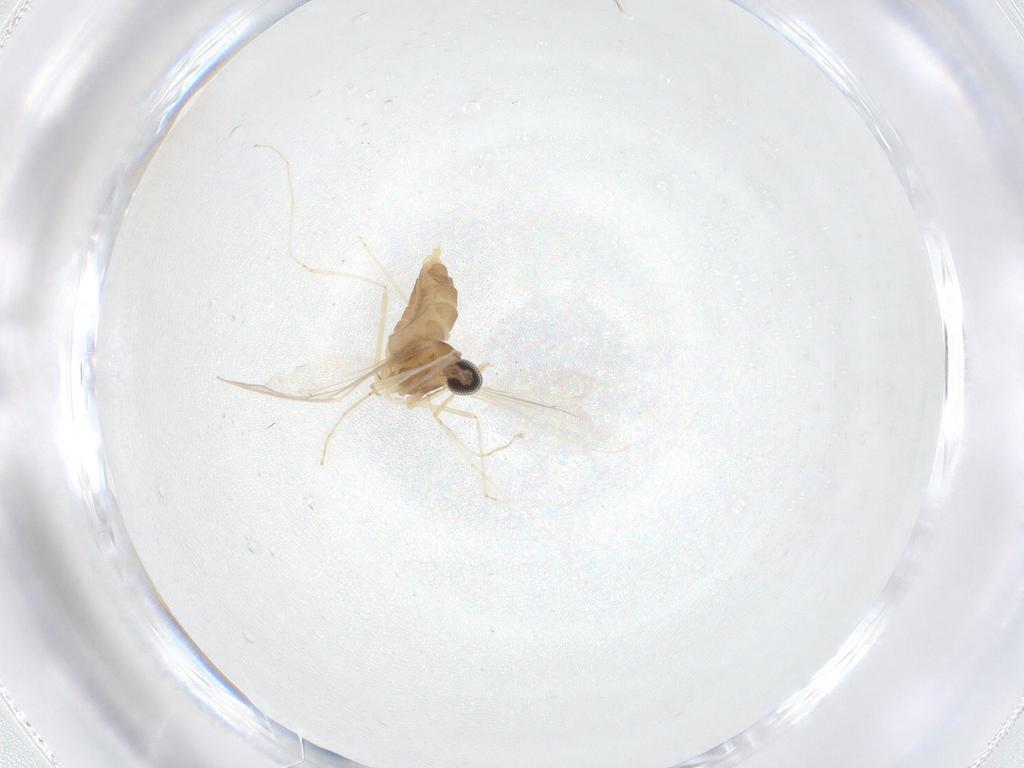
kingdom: Animalia
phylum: Arthropoda
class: Insecta
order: Diptera
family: Cecidomyiidae
